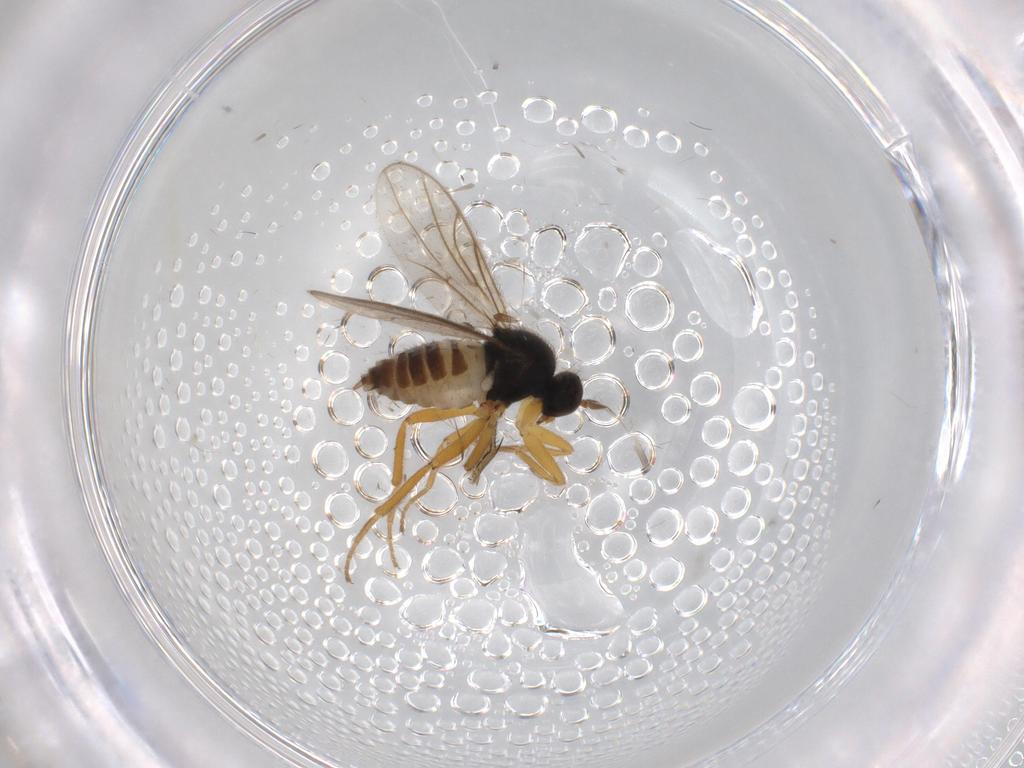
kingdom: Animalia
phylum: Arthropoda
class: Insecta
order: Diptera
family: Hybotidae
